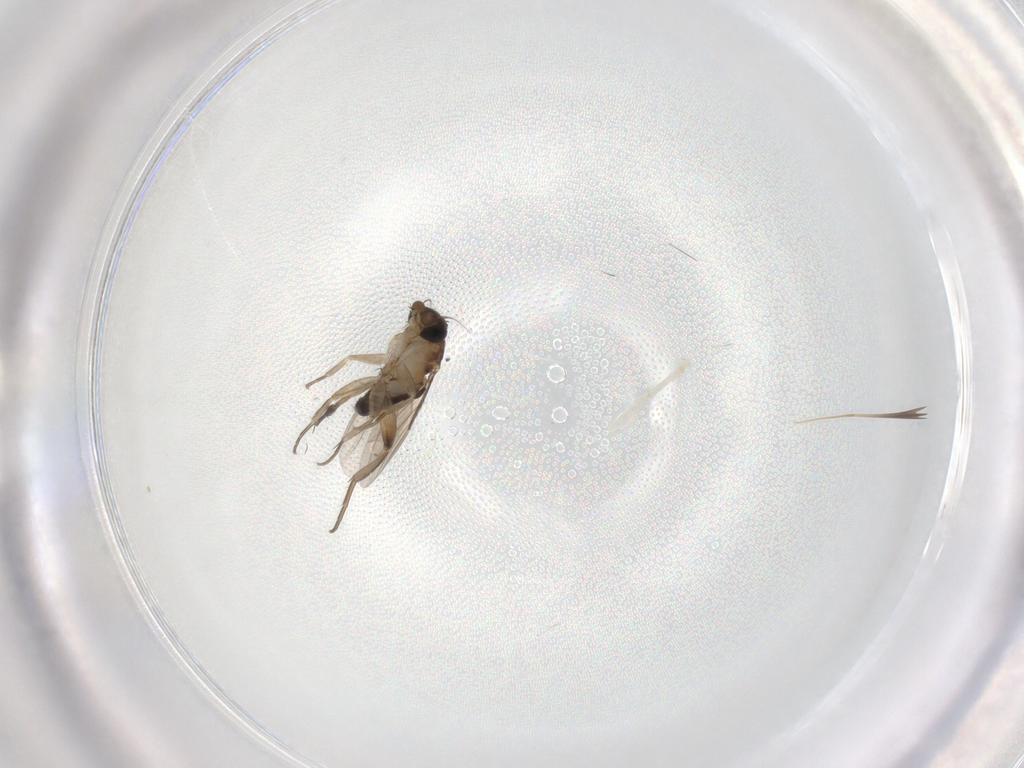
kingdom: Animalia
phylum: Arthropoda
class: Insecta
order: Diptera
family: Phoridae
